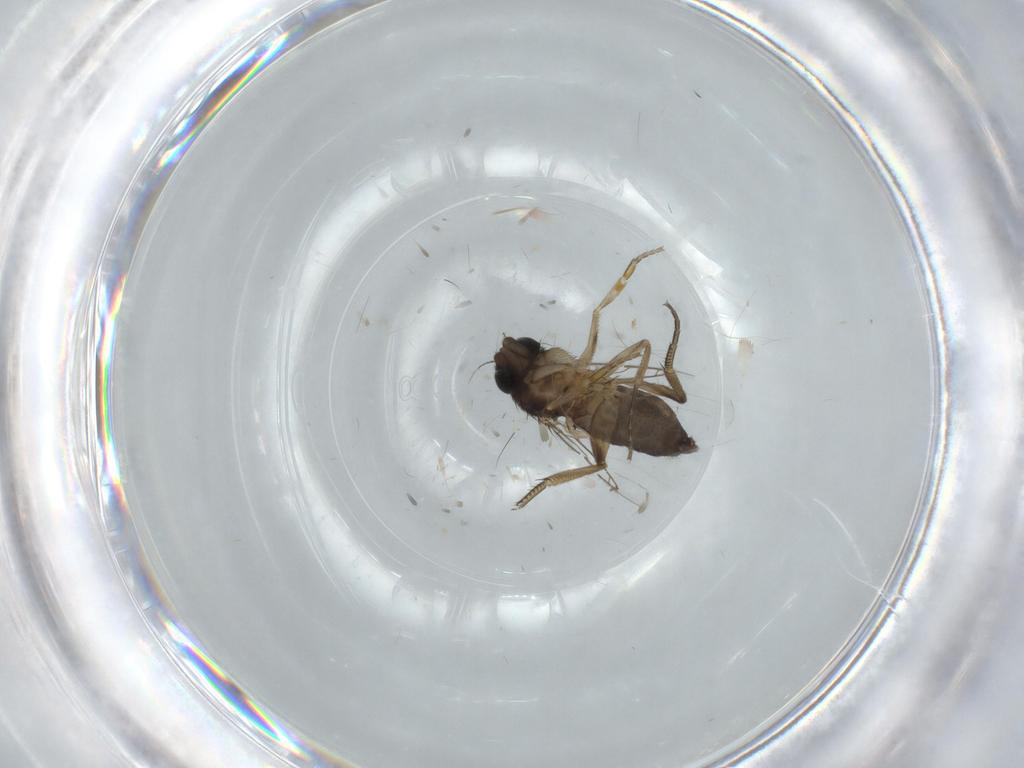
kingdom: Animalia
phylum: Arthropoda
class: Insecta
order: Diptera
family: Phoridae
